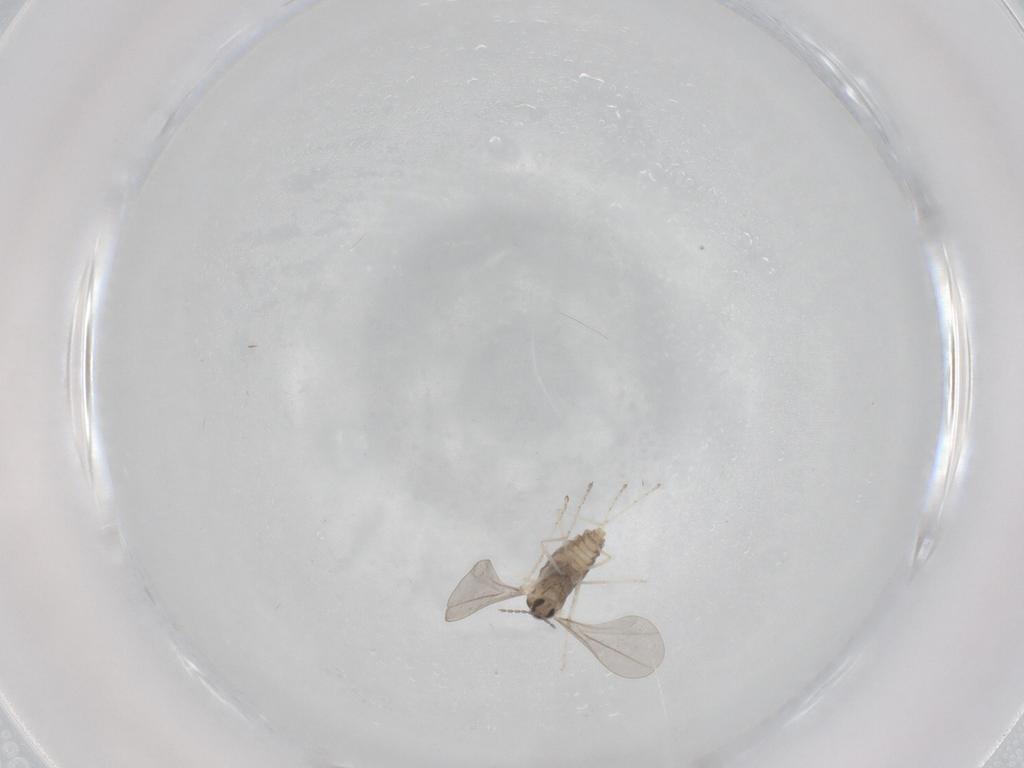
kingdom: Animalia
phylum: Arthropoda
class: Insecta
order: Diptera
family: Cecidomyiidae
